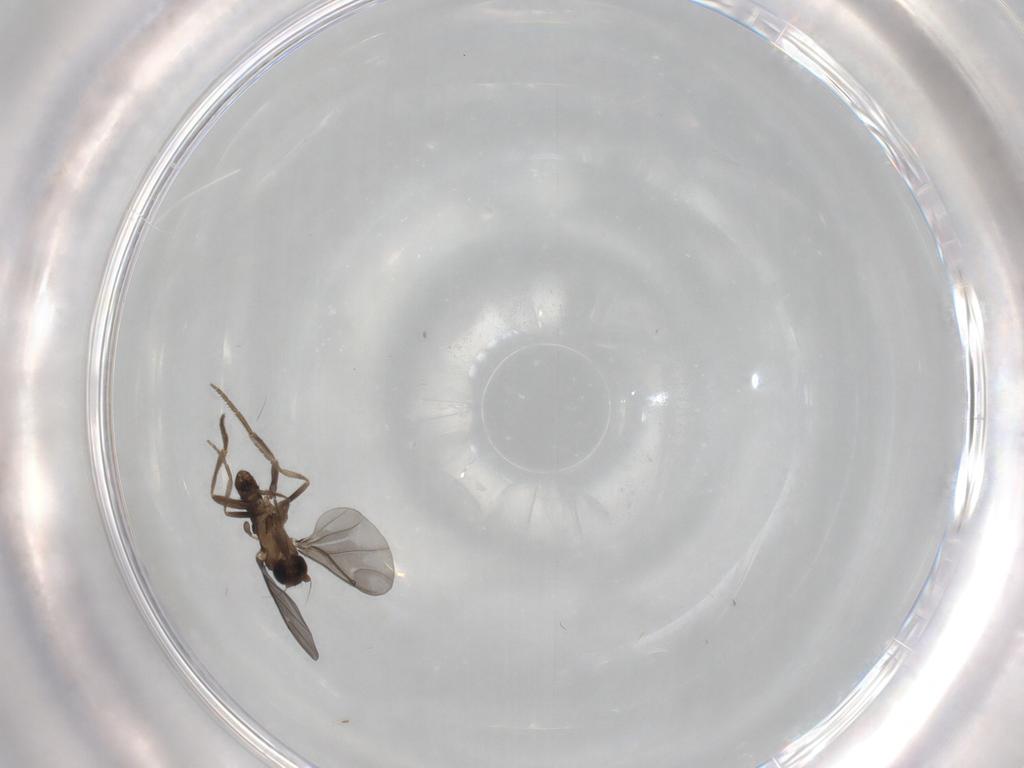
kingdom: Animalia
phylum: Arthropoda
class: Insecta
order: Diptera
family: Phoridae
